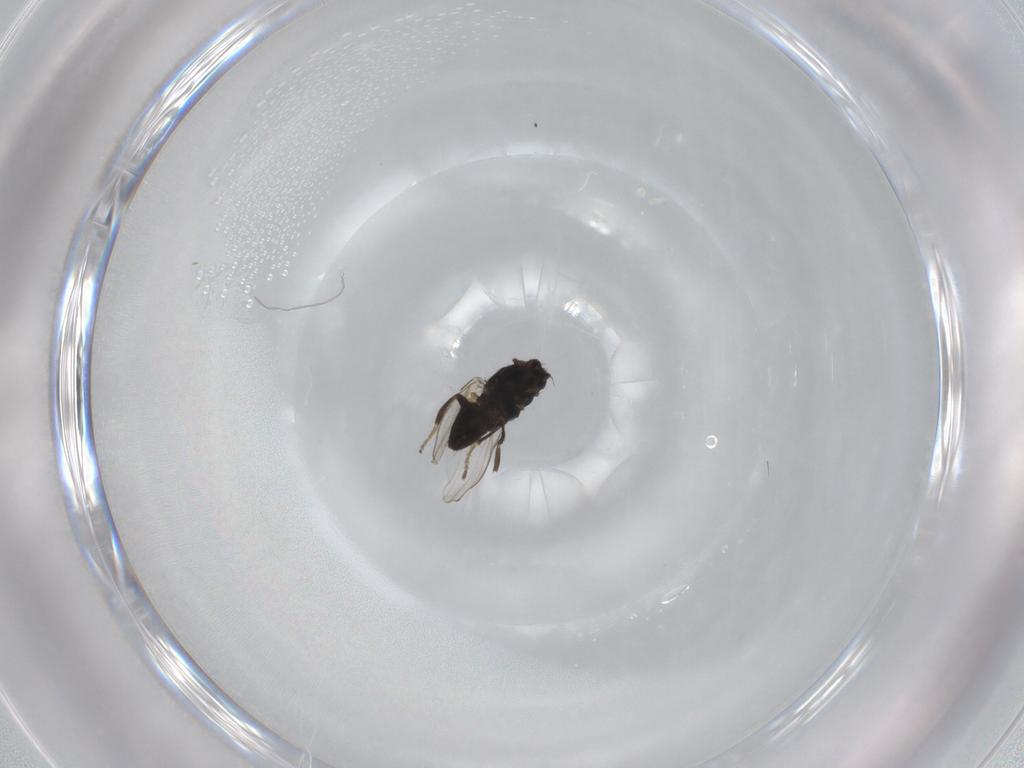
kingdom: Animalia
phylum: Arthropoda
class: Insecta
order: Diptera
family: Milichiidae
